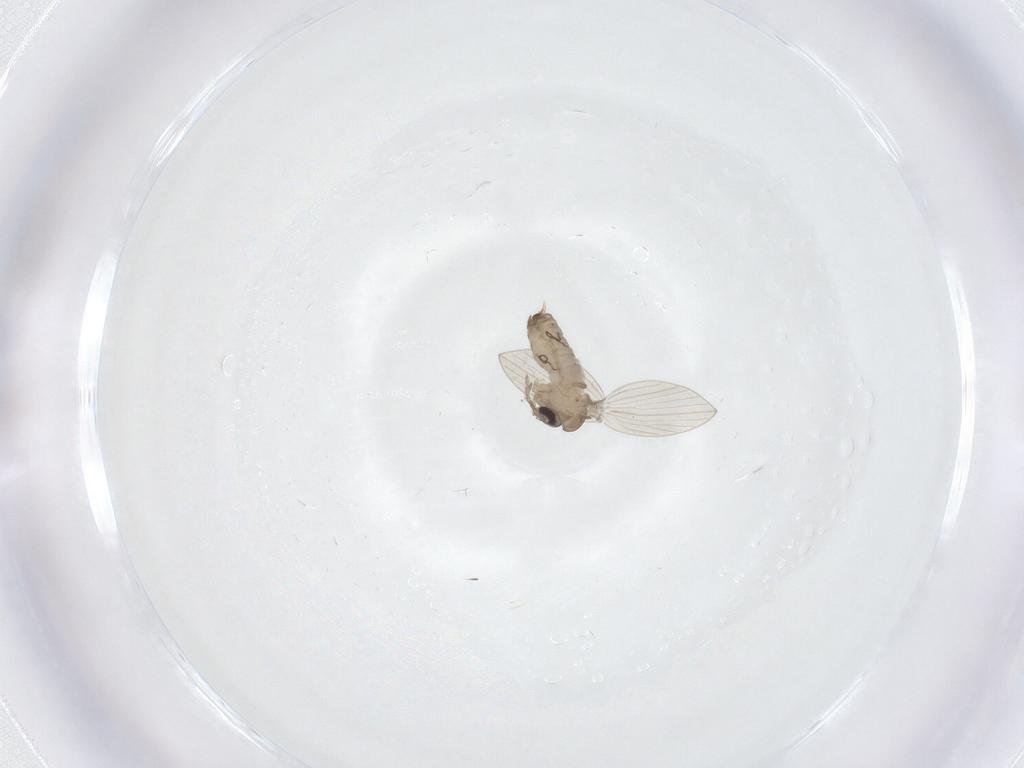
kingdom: Animalia
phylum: Arthropoda
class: Insecta
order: Diptera
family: Psychodidae
